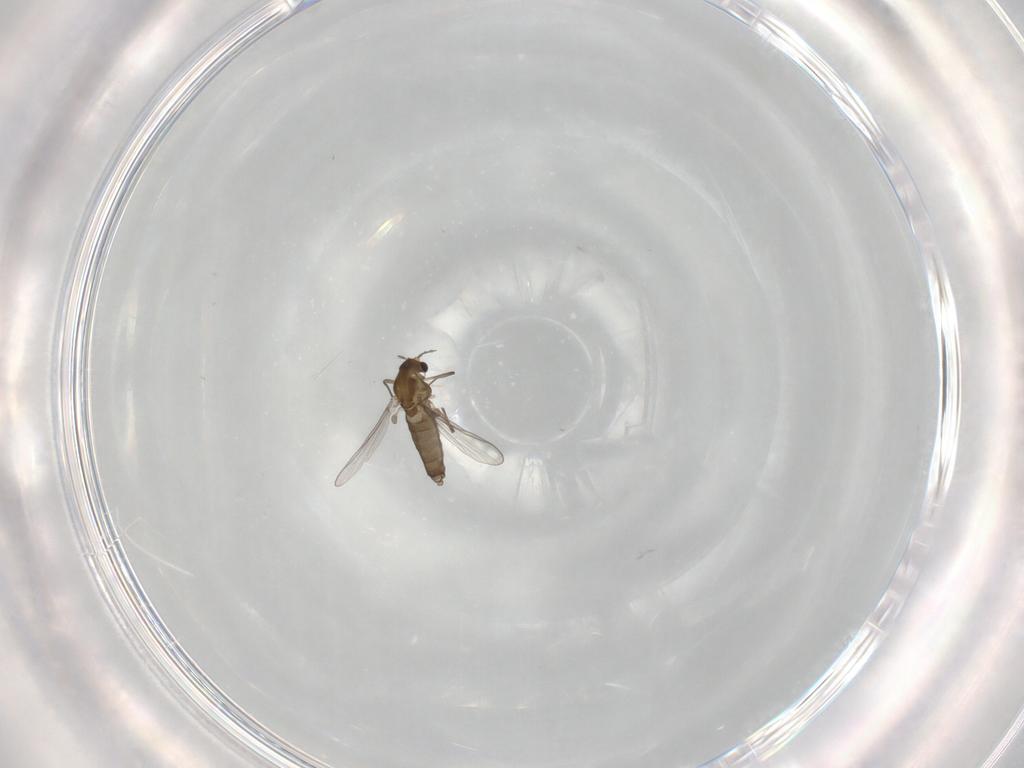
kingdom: Animalia
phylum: Arthropoda
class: Insecta
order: Diptera
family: Chironomidae
